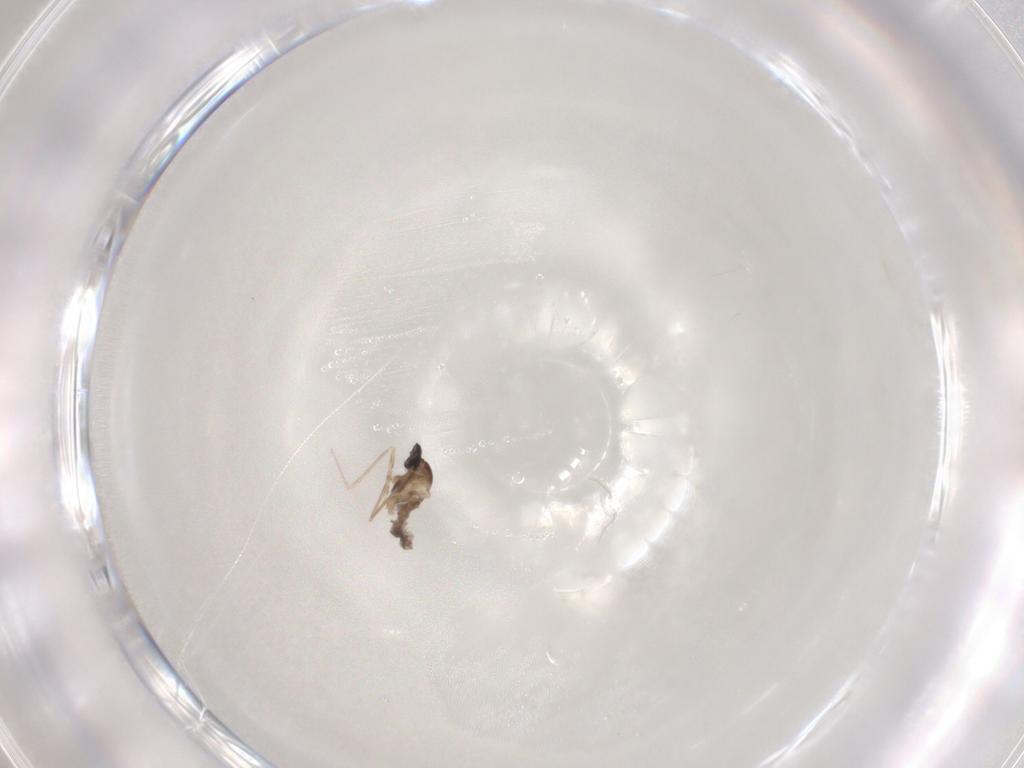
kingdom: Animalia
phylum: Arthropoda
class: Insecta
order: Diptera
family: Cecidomyiidae
